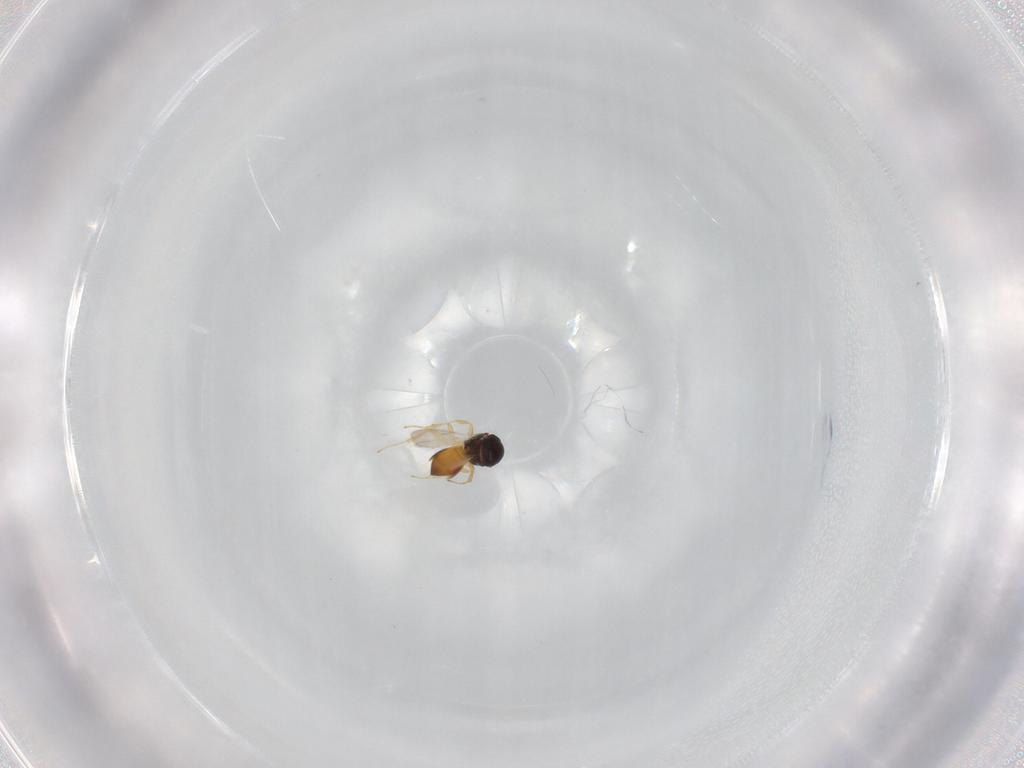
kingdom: Animalia
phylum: Arthropoda
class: Insecta
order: Hymenoptera
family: Scelionidae
